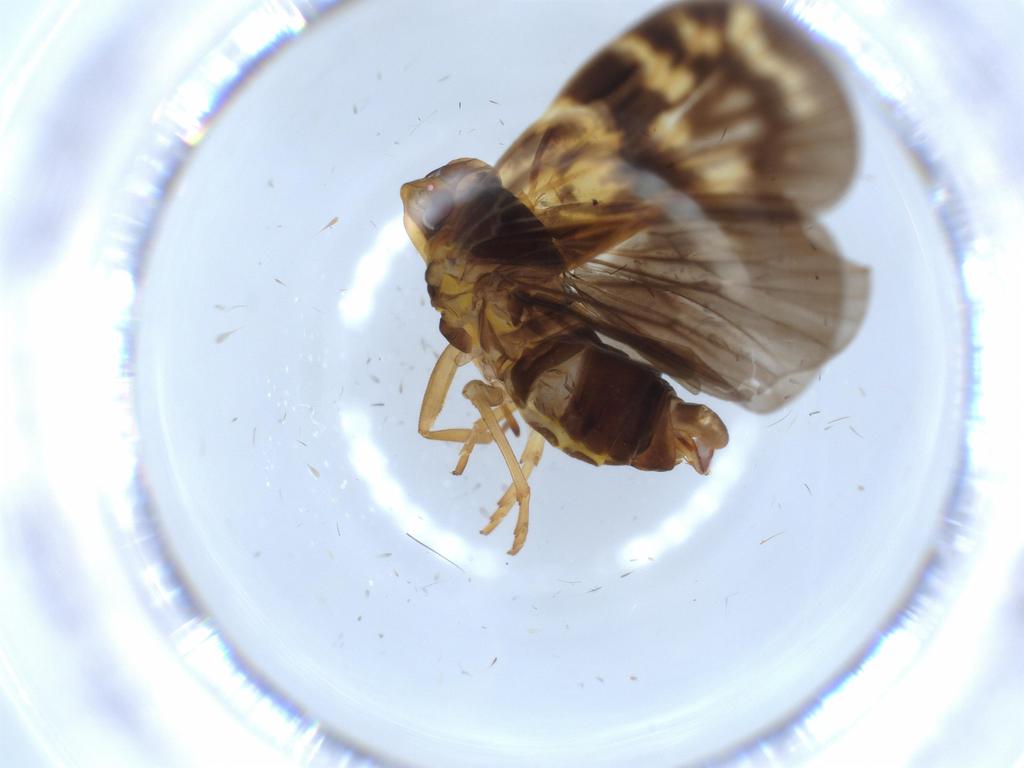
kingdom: Animalia
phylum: Arthropoda
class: Insecta
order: Hemiptera
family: Cixiidae
